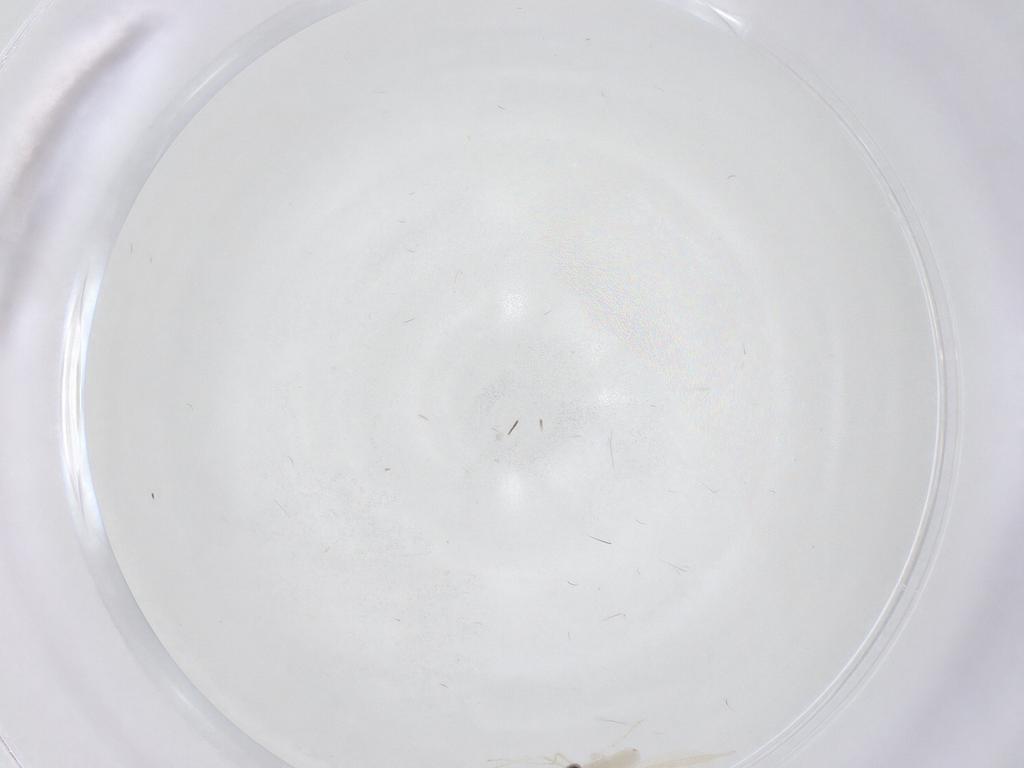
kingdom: Animalia
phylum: Arthropoda
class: Insecta
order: Diptera
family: Cecidomyiidae
